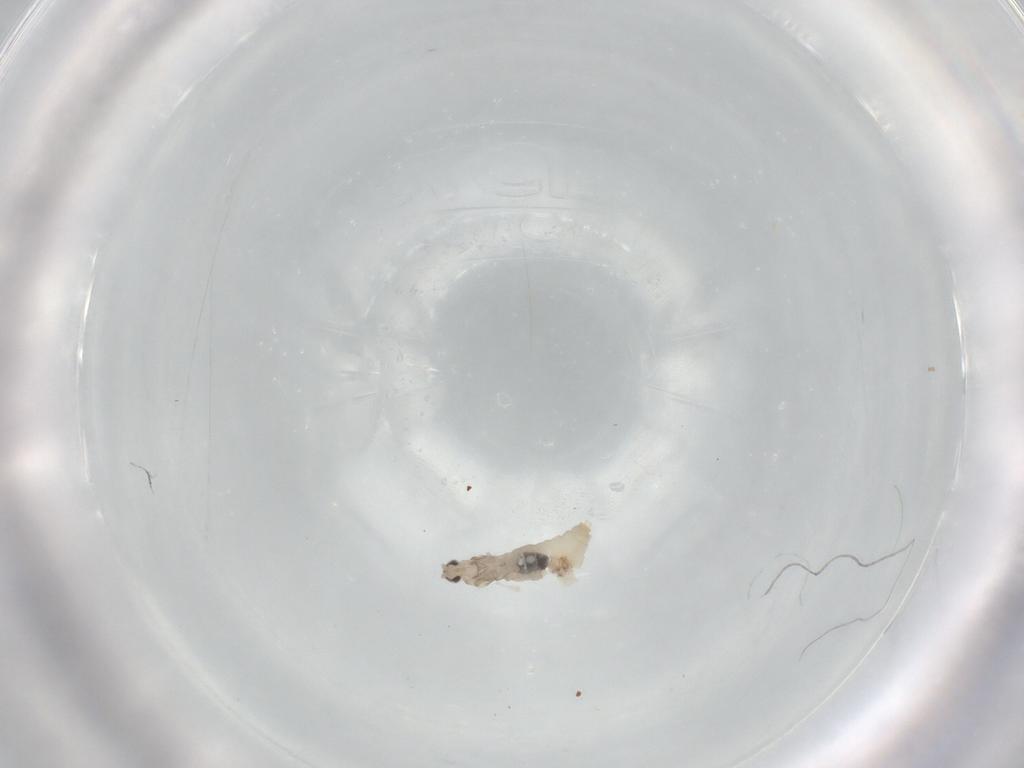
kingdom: Animalia
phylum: Arthropoda
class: Insecta
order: Diptera
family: Cecidomyiidae
